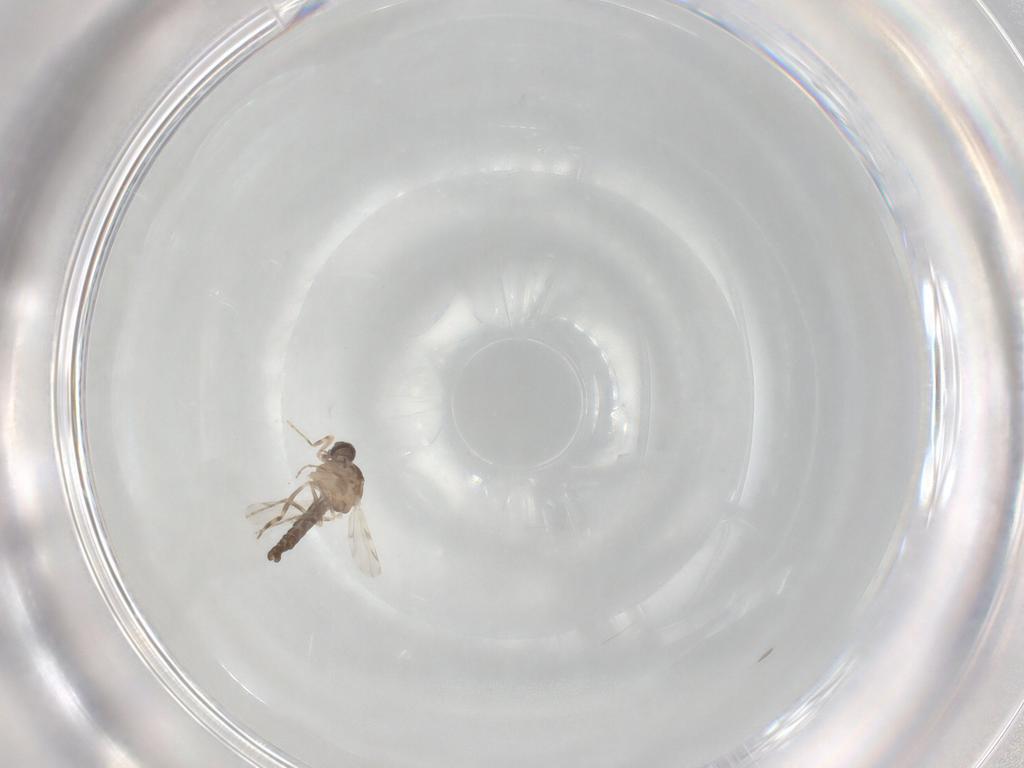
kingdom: Animalia
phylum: Arthropoda
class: Insecta
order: Diptera
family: Ceratopogonidae
